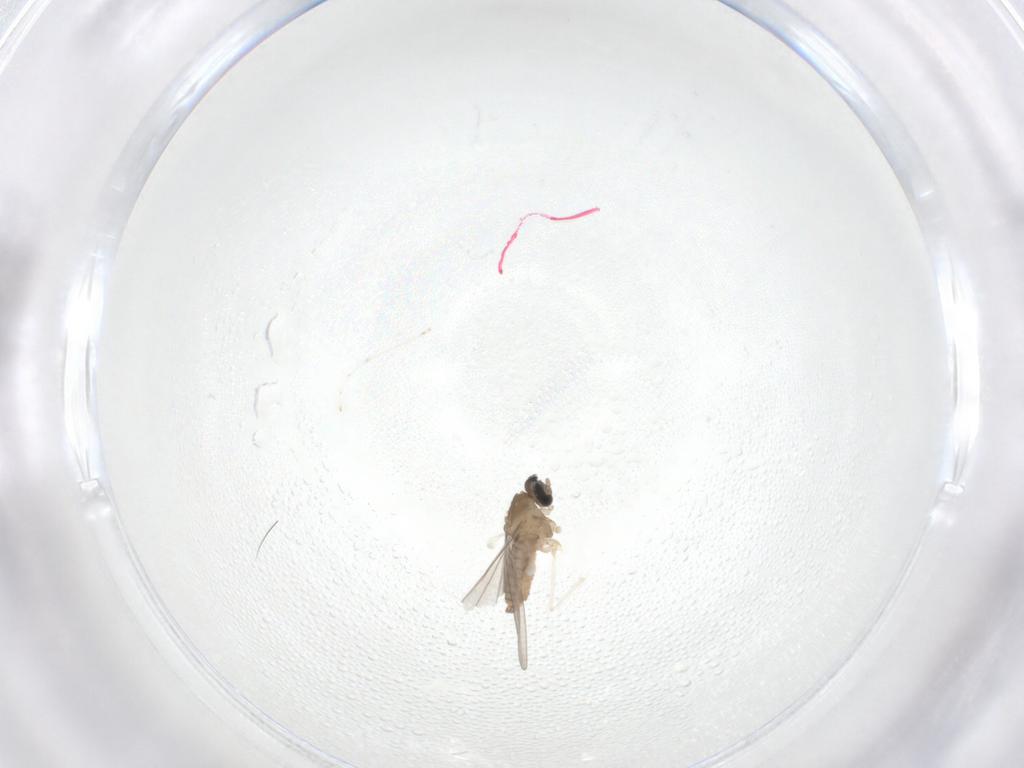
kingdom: Animalia
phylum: Arthropoda
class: Insecta
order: Diptera
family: Cecidomyiidae
